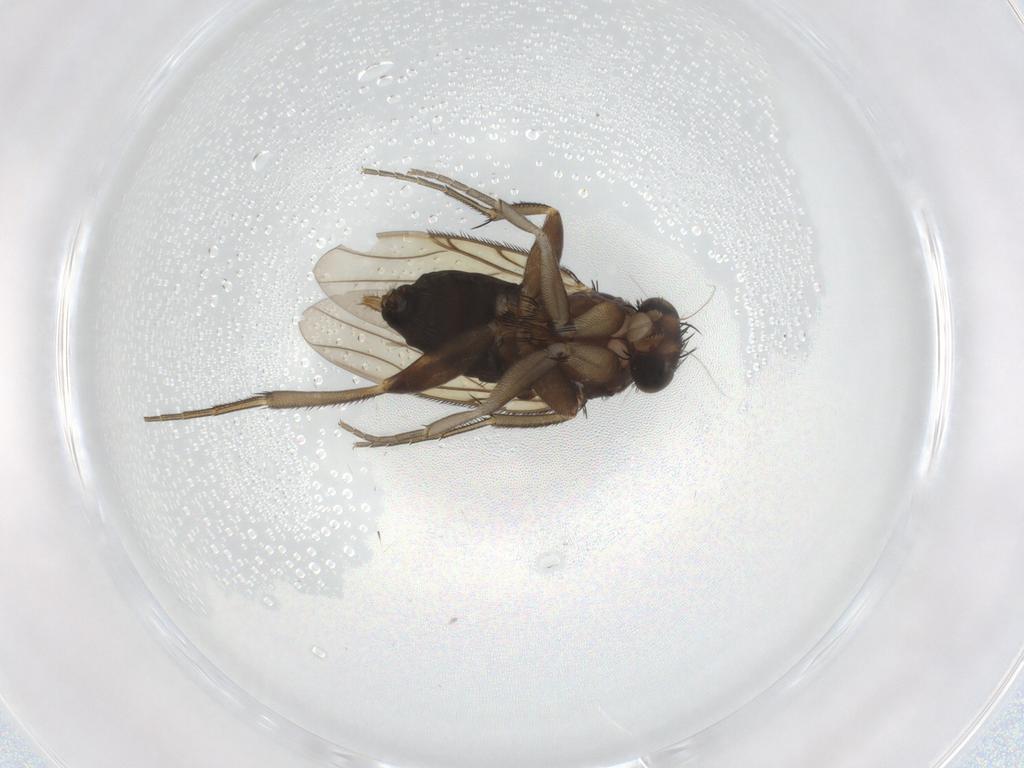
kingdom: Animalia
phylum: Arthropoda
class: Insecta
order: Diptera
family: Phoridae
